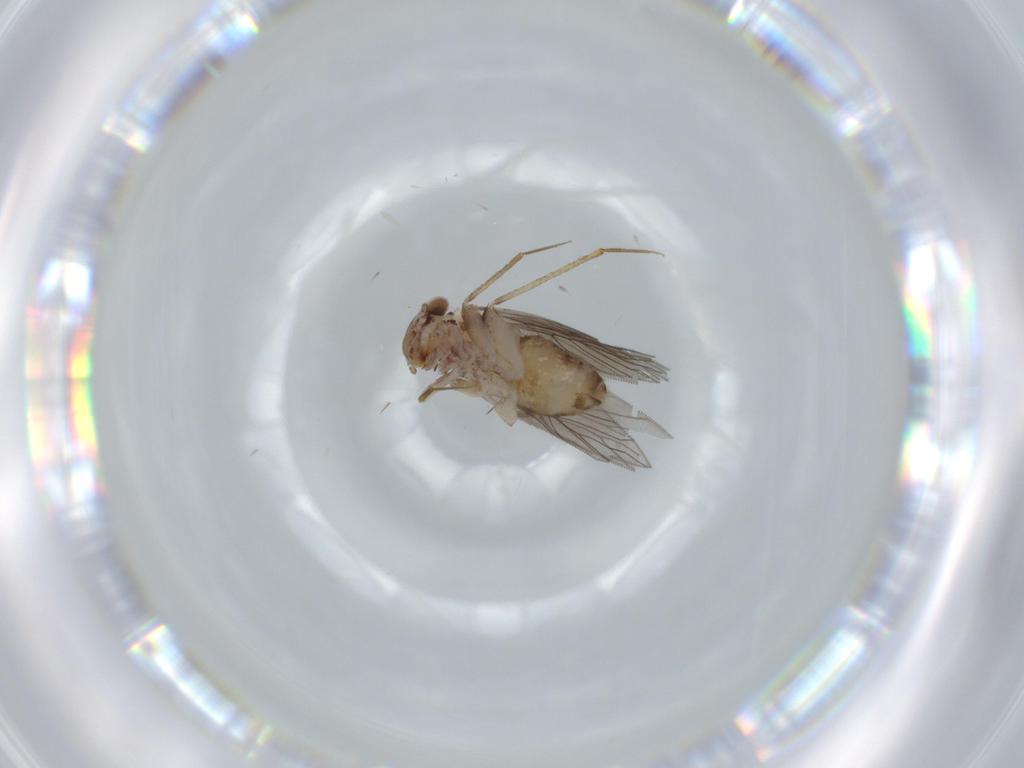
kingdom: Animalia
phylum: Arthropoda
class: Insecta
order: Psocodea
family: Lepidopsocidae
